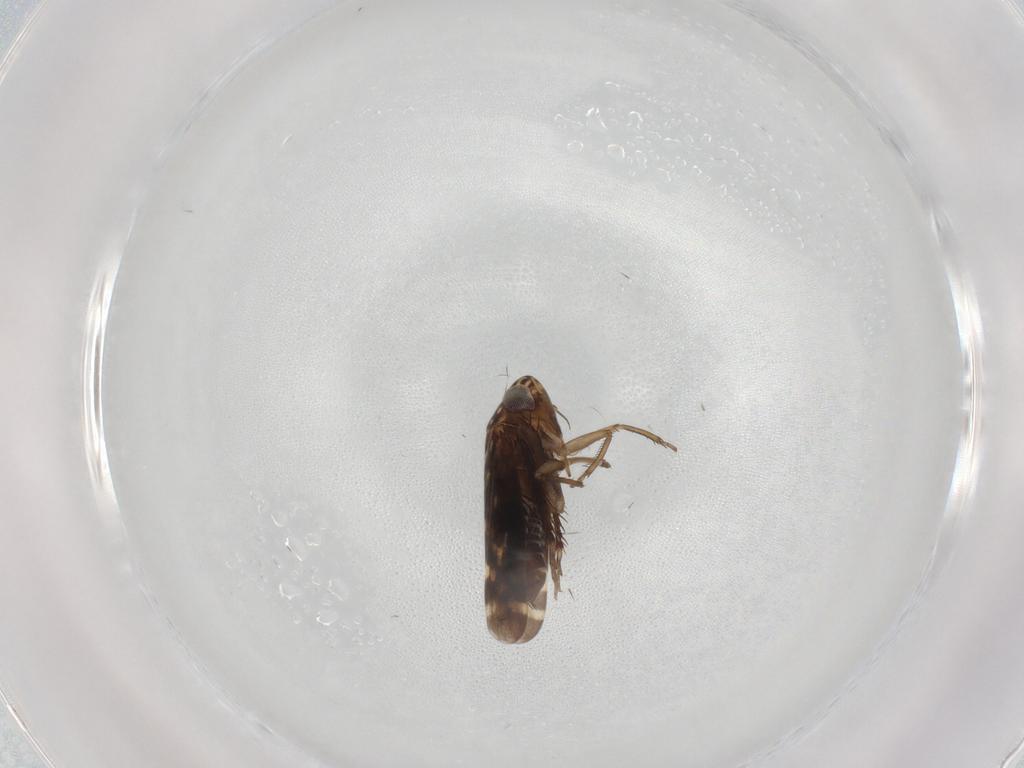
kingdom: Animalia
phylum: Arthropoda
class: Insecta
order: Hemiptera
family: Cicadellidae
